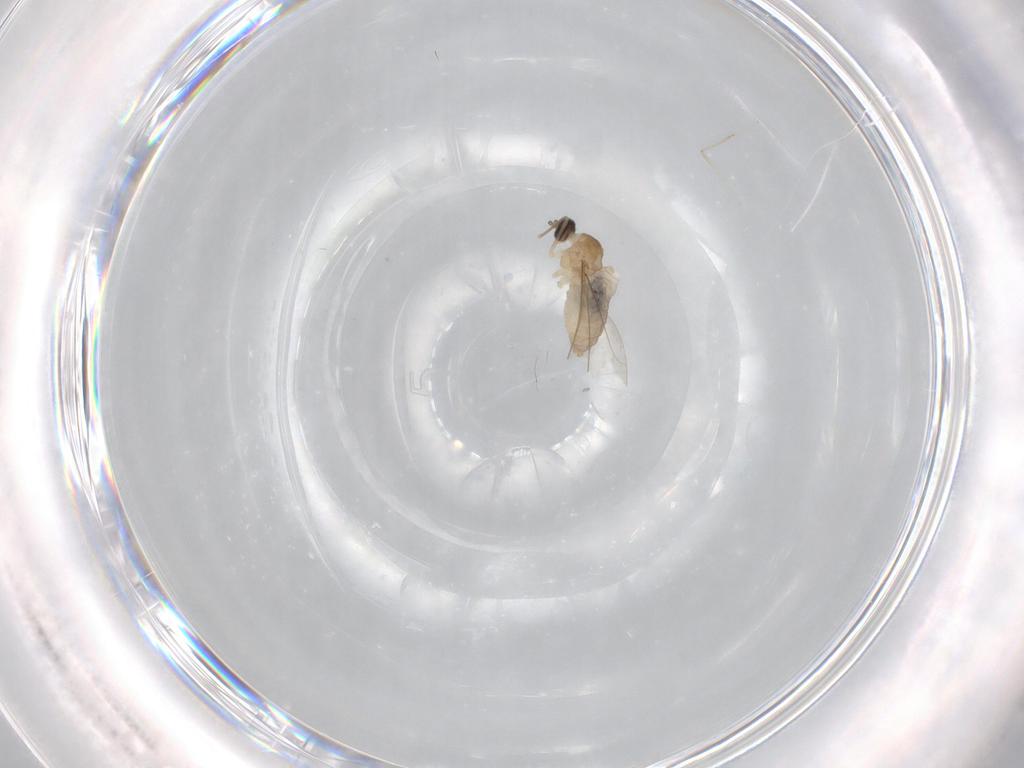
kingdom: Animalia
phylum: Arthropoda
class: Insecta
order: Diptera
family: Cecidomyiidae
